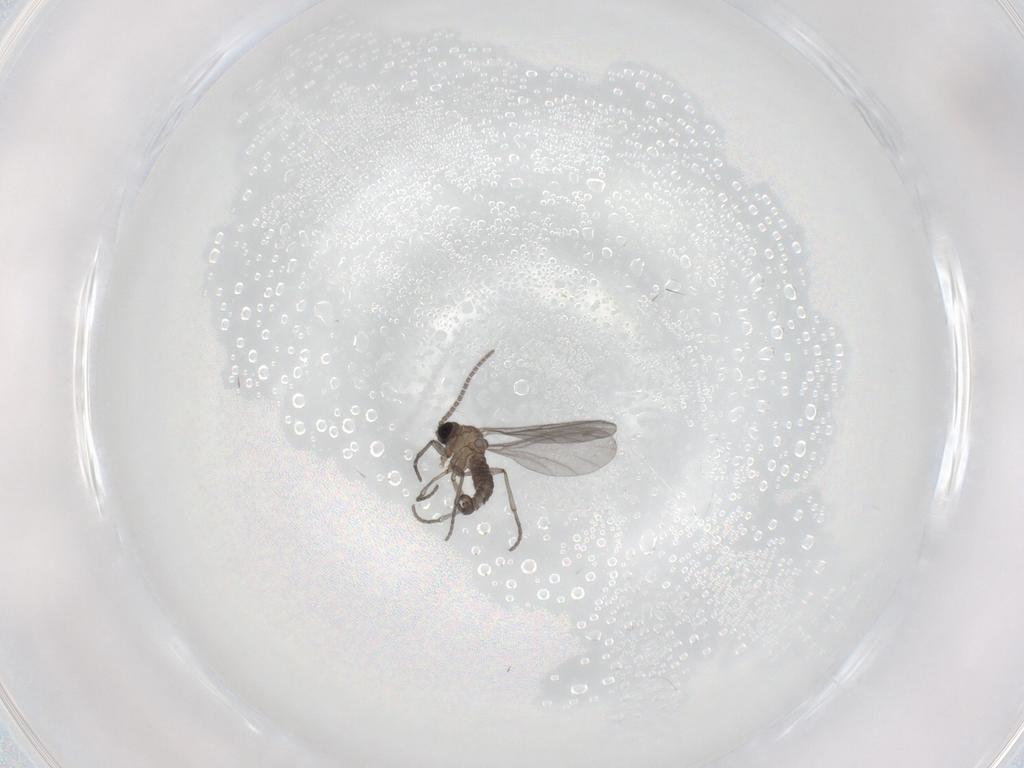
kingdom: Animalia
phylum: Arthropoda
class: Insecta
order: Diptera
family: Sciaridae
